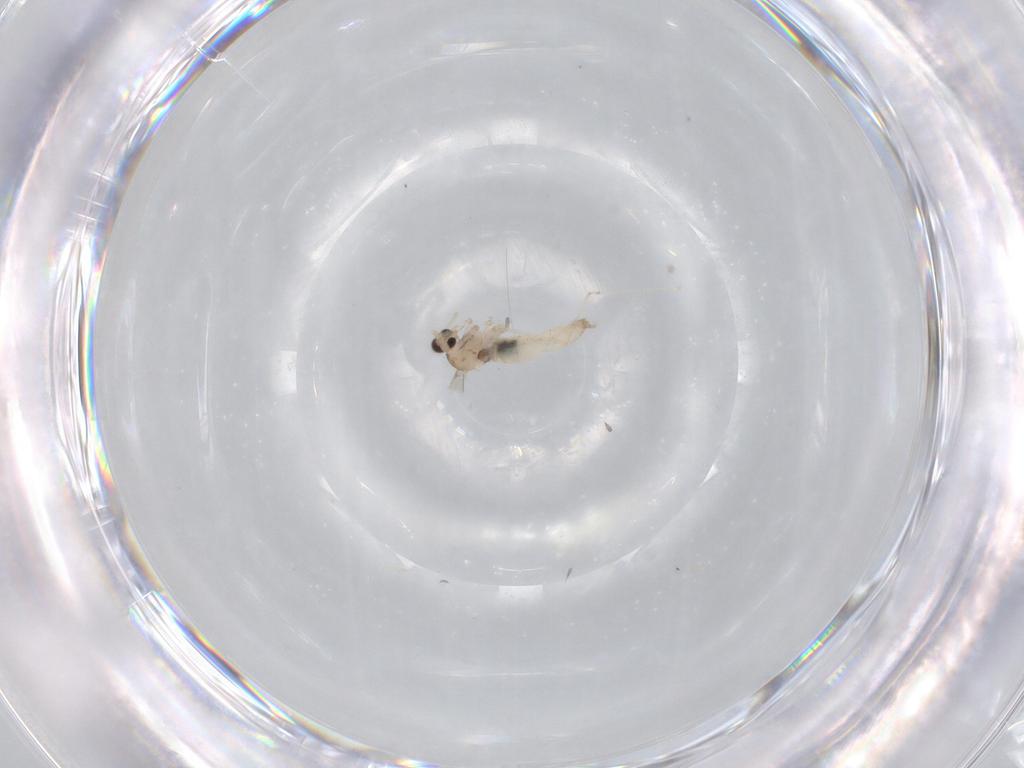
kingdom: Animalia
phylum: Arthropoda
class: Insecta
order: Diptera
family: Cecidomyiidae
